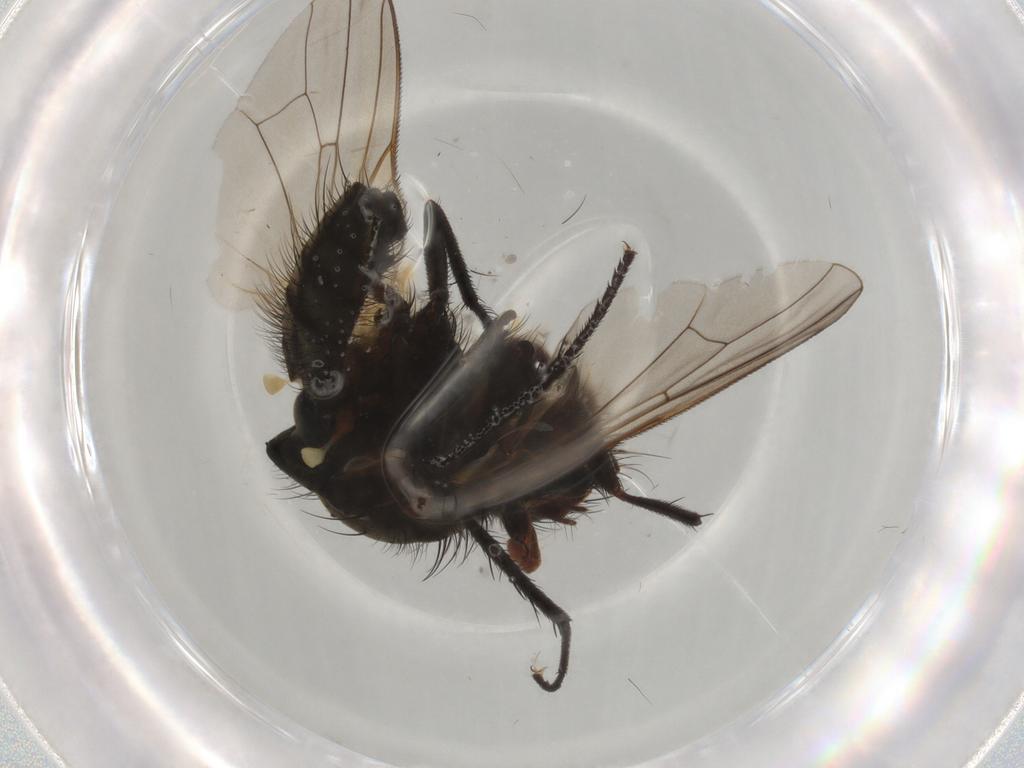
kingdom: Animalia
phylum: Arthropoda
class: Insecta
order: Diptera
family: Anthomyiidae
